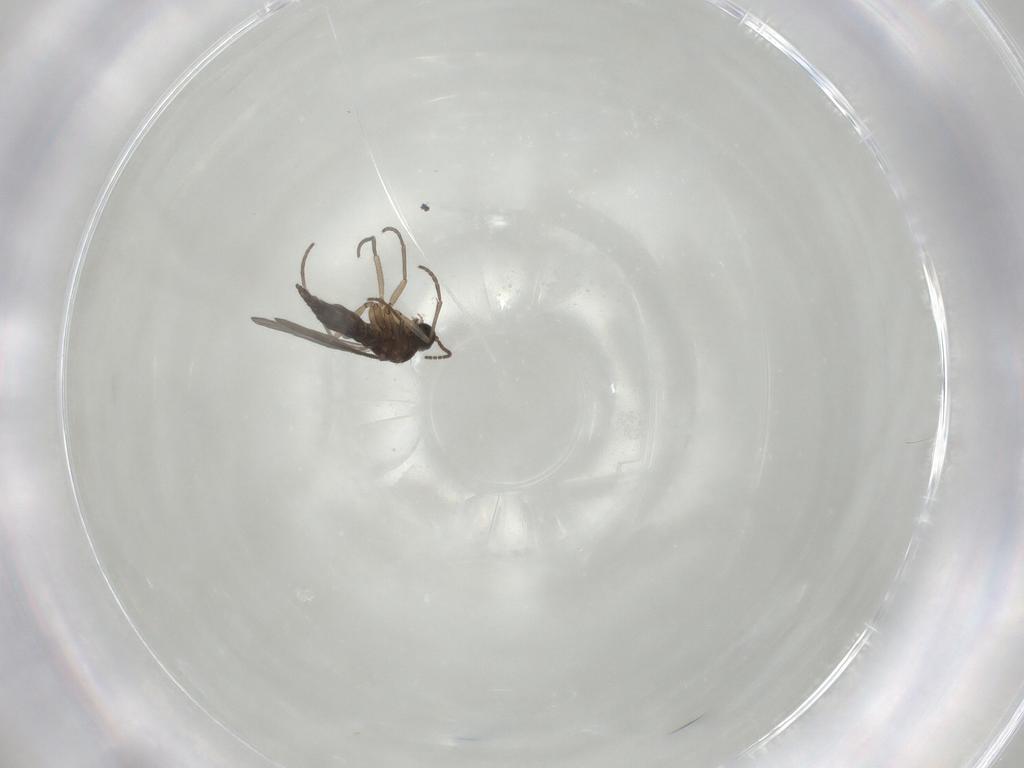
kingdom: Animalia
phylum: Arthropoda
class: Insecta
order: Diptera
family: Sciaridae
